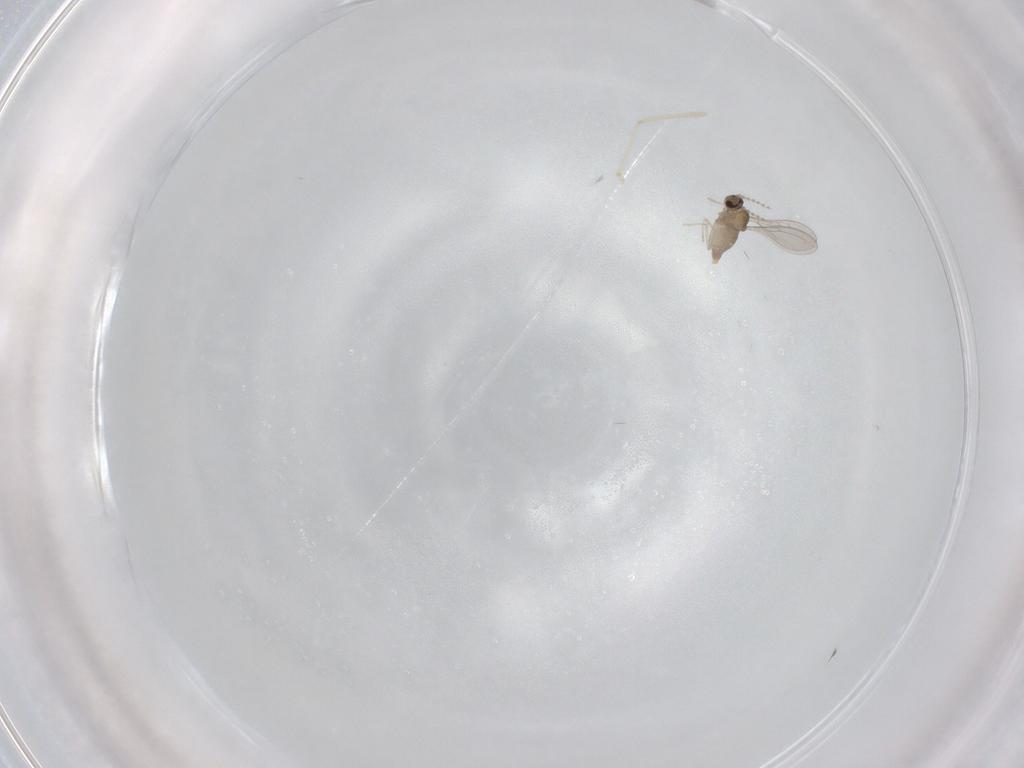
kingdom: Animalia
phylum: Arthropoda
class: Insecta
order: Diptera
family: Cecidomyiidae
